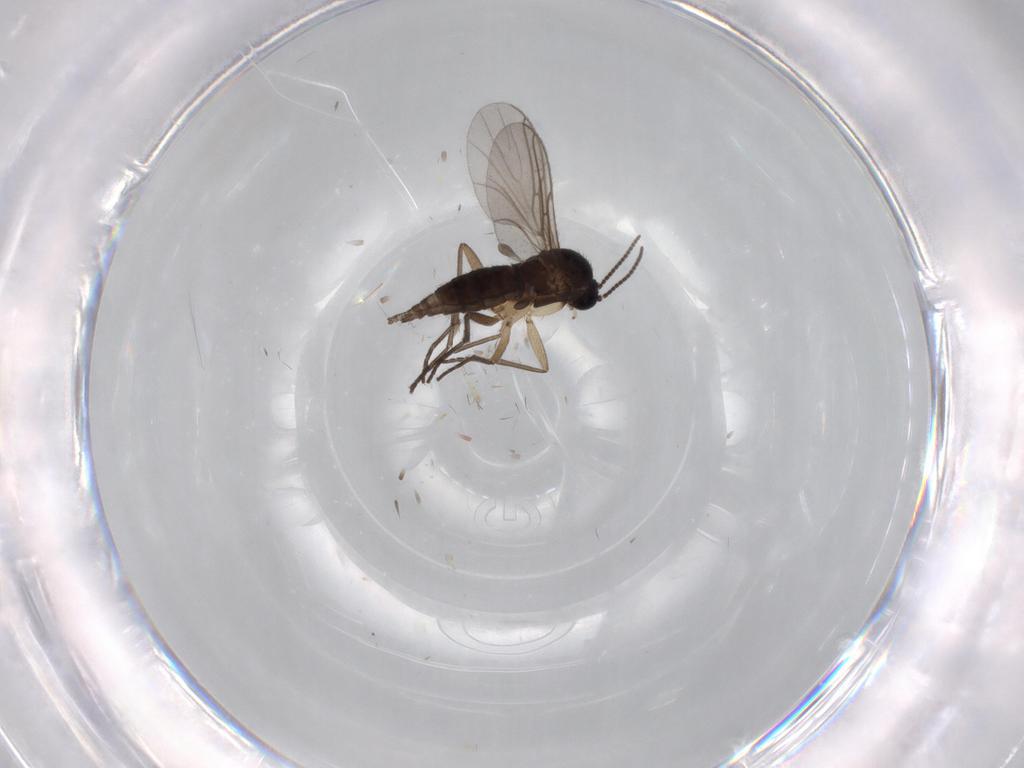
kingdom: Animalia
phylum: Arthropoda
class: Insecta
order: Diptera
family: Sciaridae
